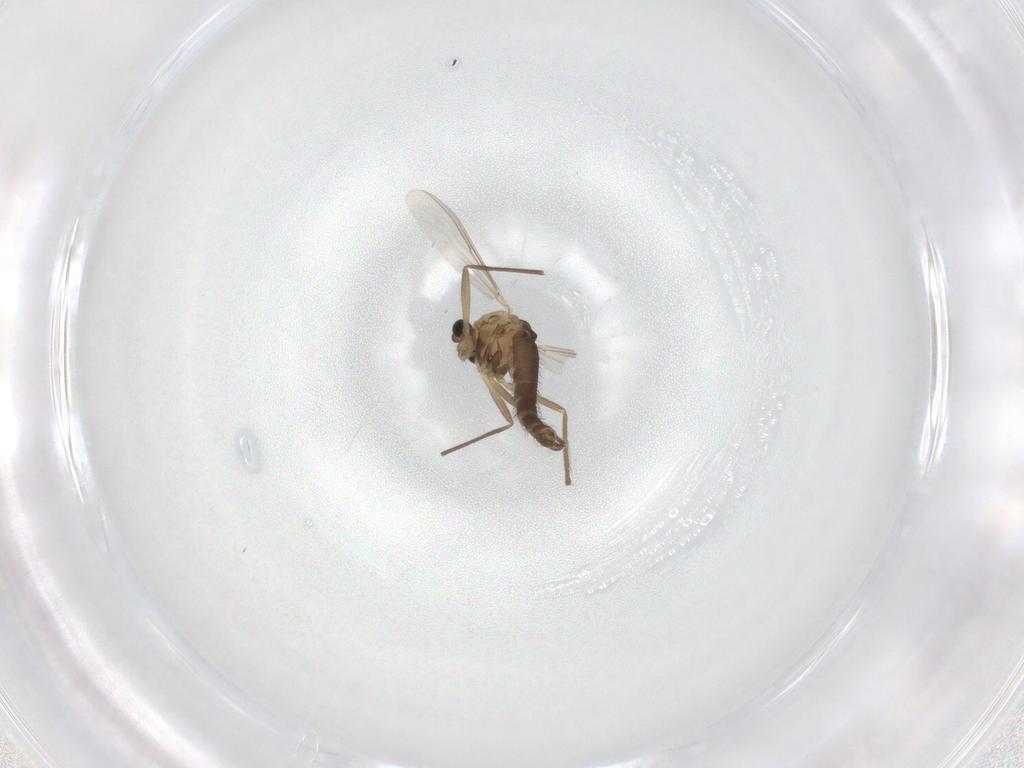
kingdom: Animalia
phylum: Arthropoda
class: Insecta
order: Diptera
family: Chironomidae
